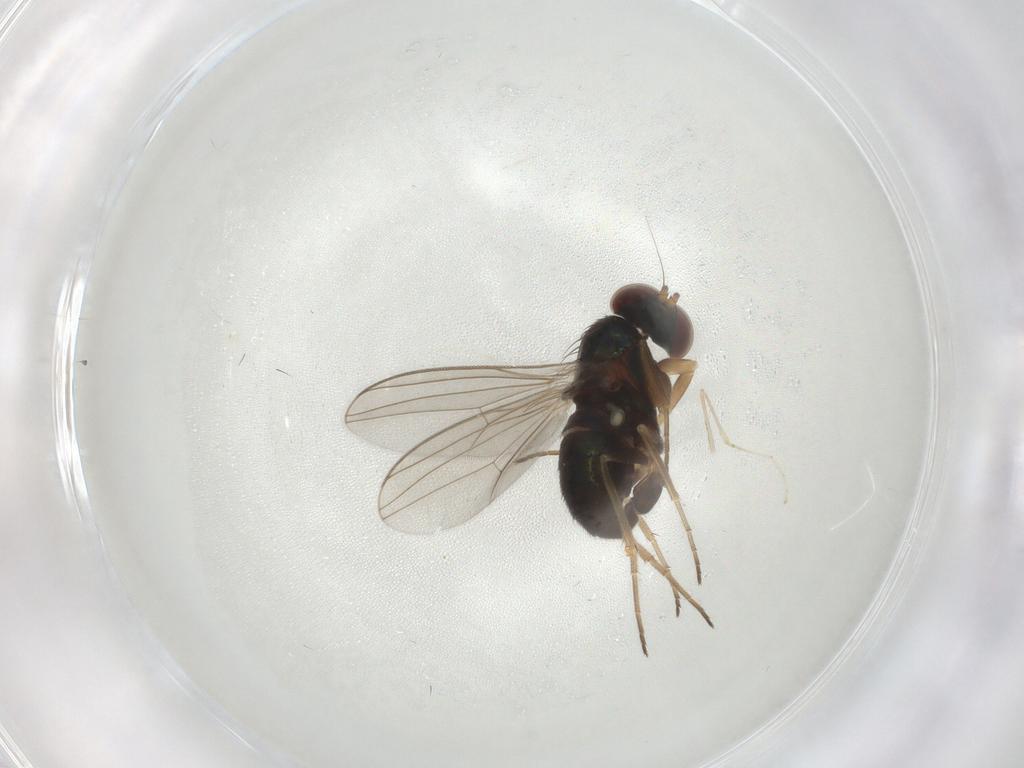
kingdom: Animalia
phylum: Arthropoda
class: Insecta
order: Diptera
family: Dolichopodidae
